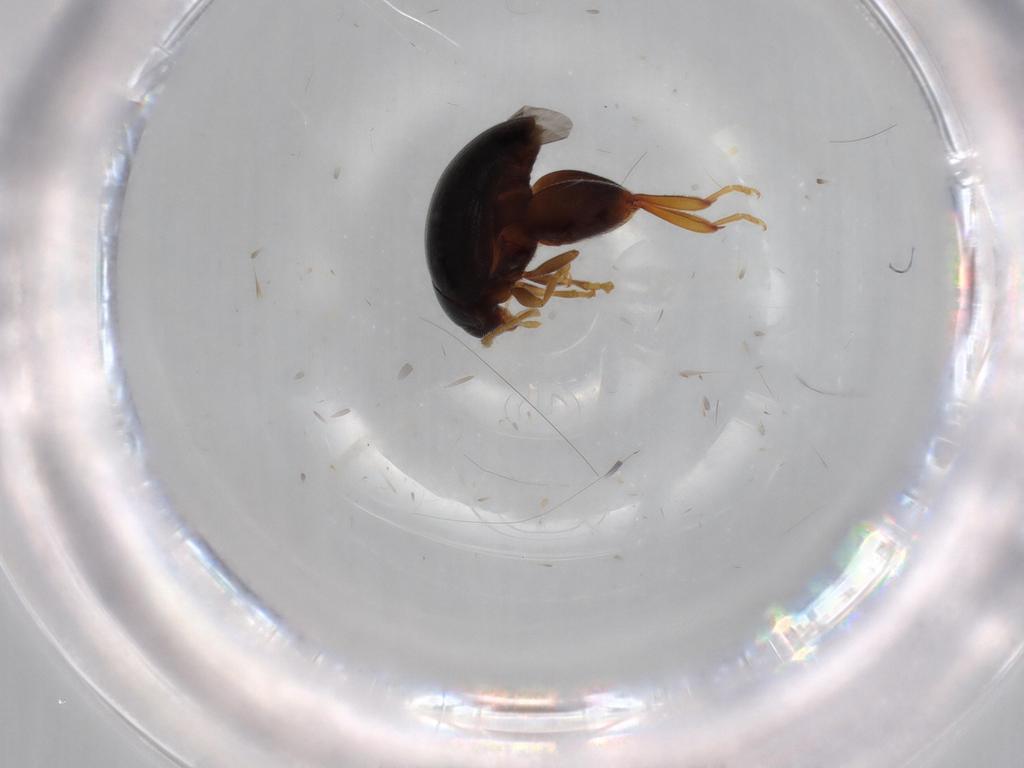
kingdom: Animalia
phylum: Arthropoda
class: Insecta
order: Coleoptera
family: Chrysomelidae
